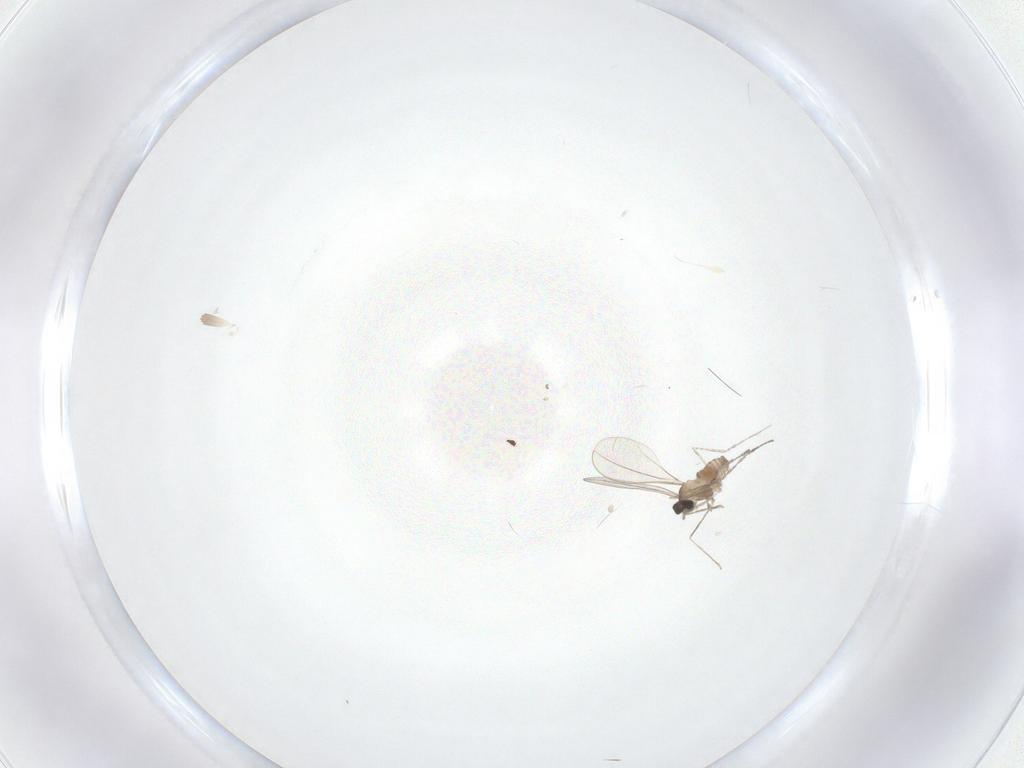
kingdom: Animalia
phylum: Arthropoda
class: Insecta
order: Diptera
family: Cecidomyiidae
